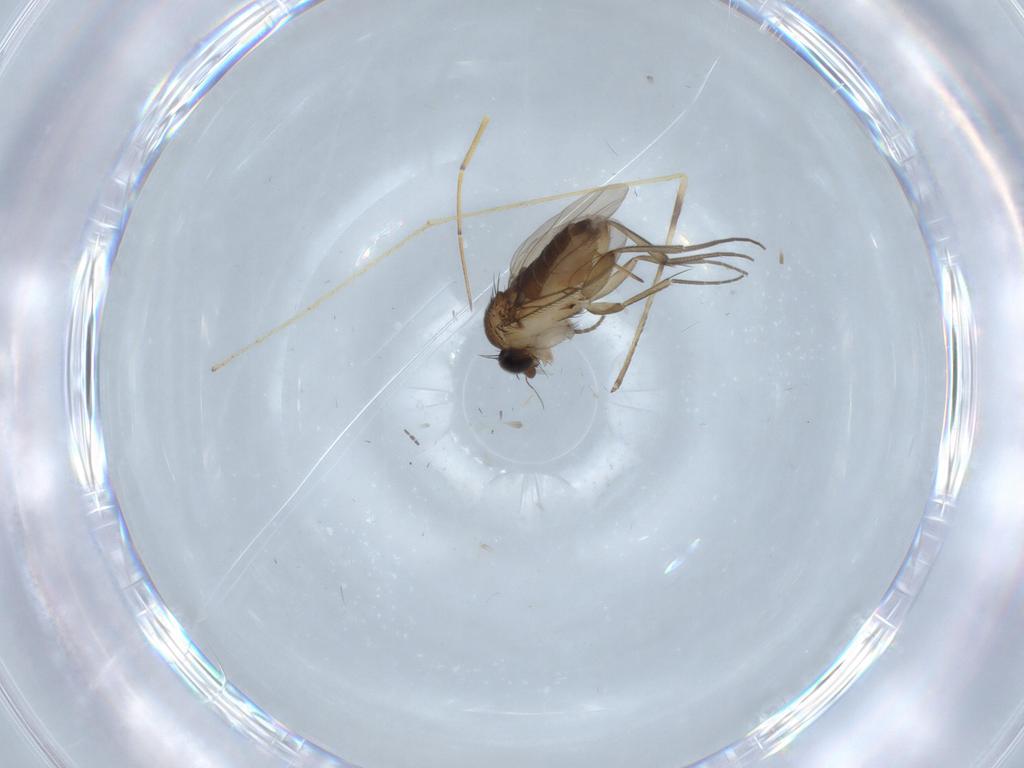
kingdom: Animalia
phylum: Arthropoda
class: Insecta
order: Diptera
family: Phoridae
